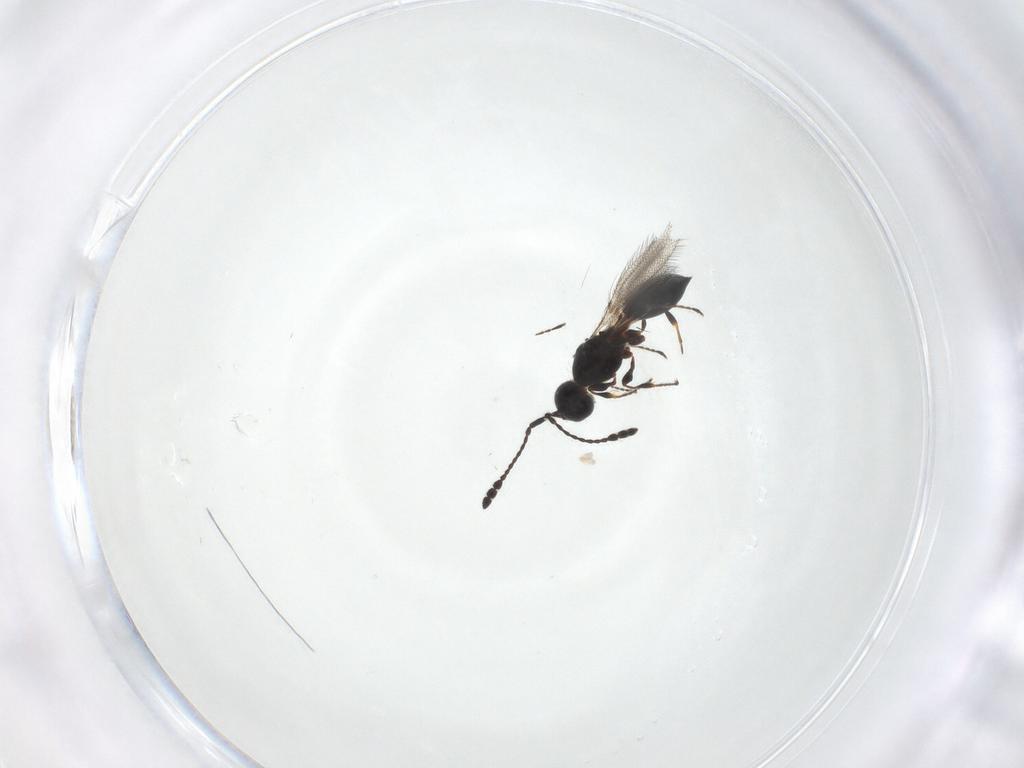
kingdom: Animalia
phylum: Arthropoda
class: Insecta
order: Hymenoptera
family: Diapriidae
